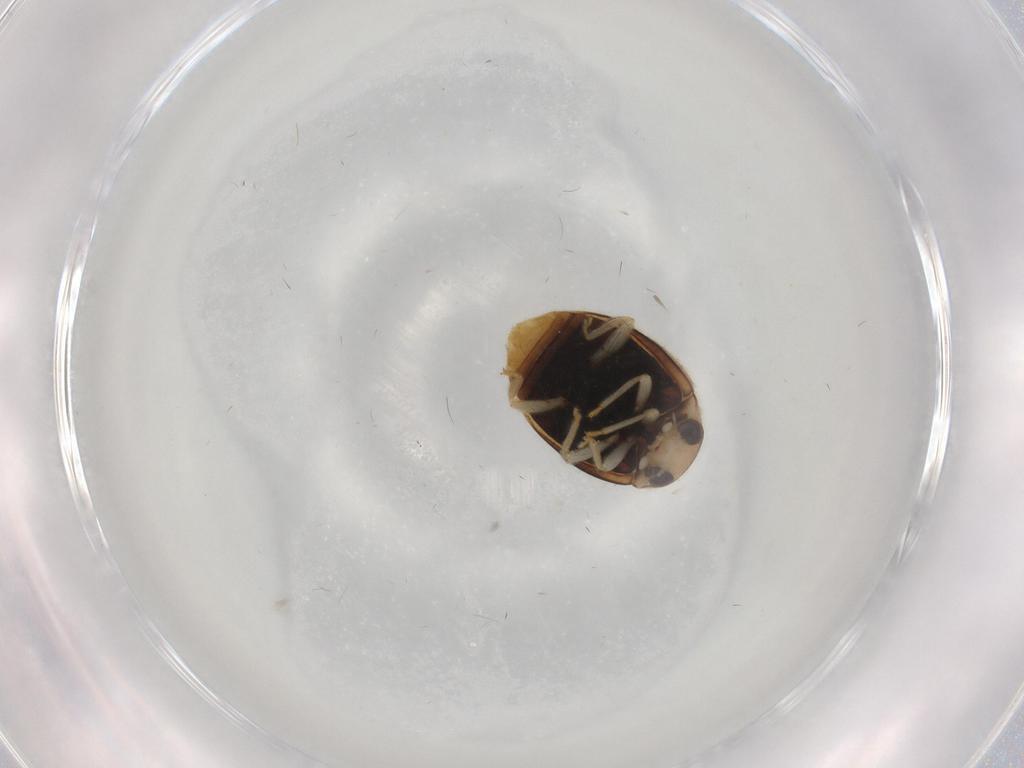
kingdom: Animalia
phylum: Arthropoda
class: Insecta
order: Coleoptera
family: Coccinellidae
